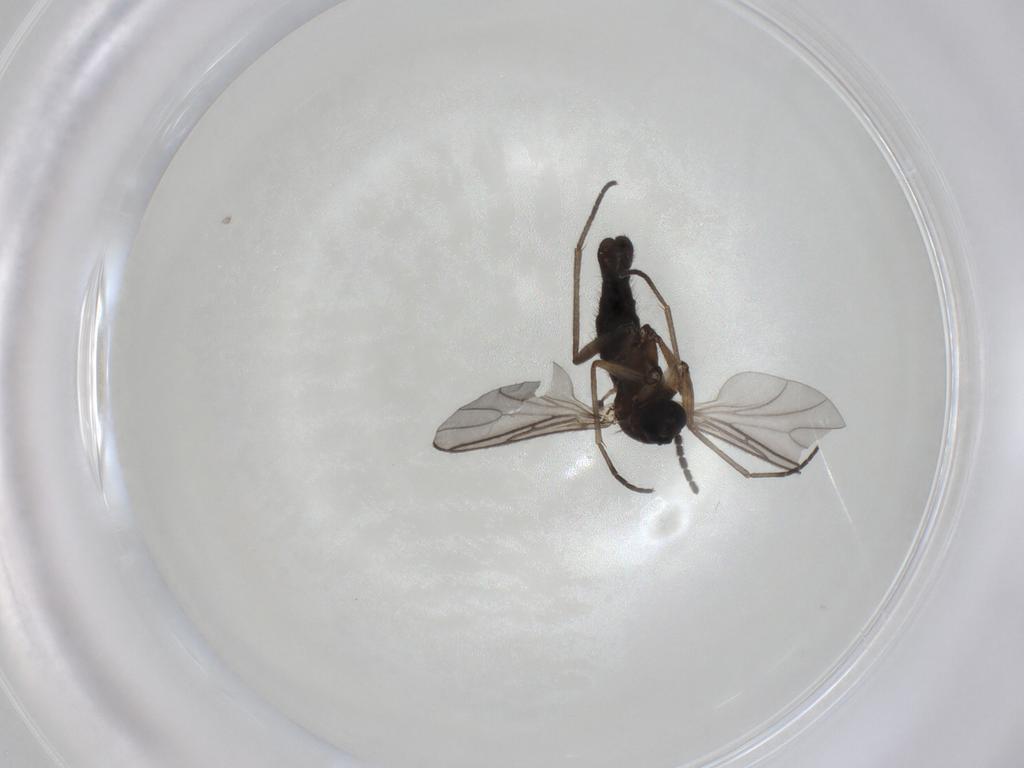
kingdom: Animalia
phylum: Arthropoda
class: Insecta
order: Diptera
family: Sciaridae
